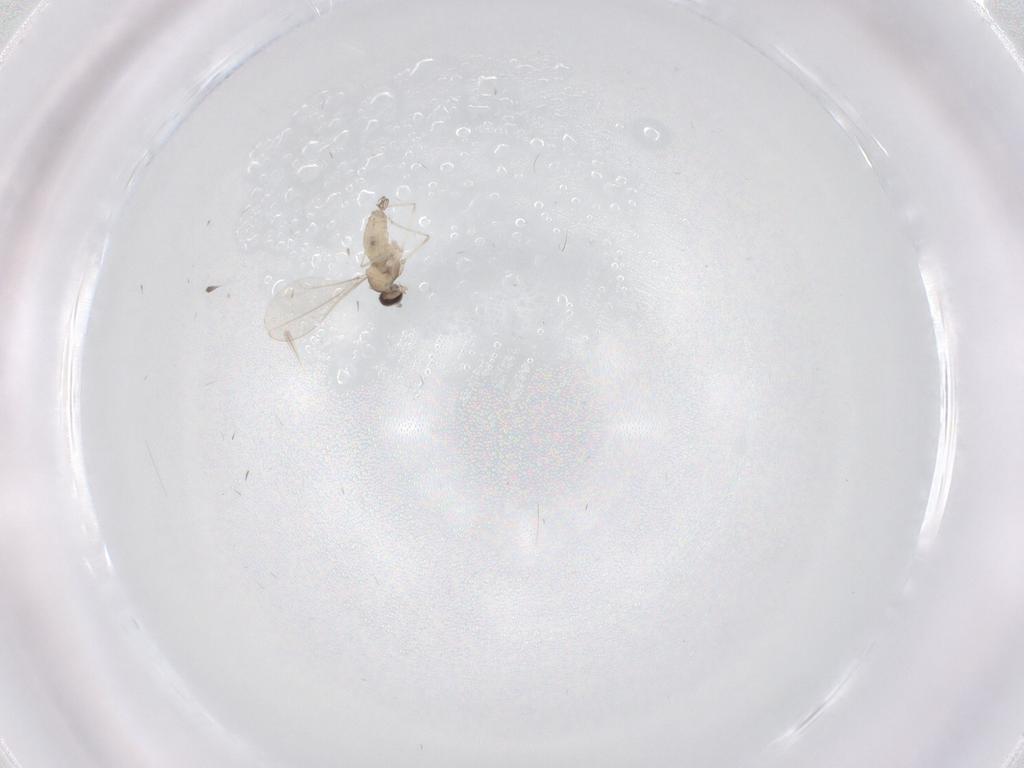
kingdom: Animalia
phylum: Arthropoda
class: Insecta
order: Diptera
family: Sciaridae
